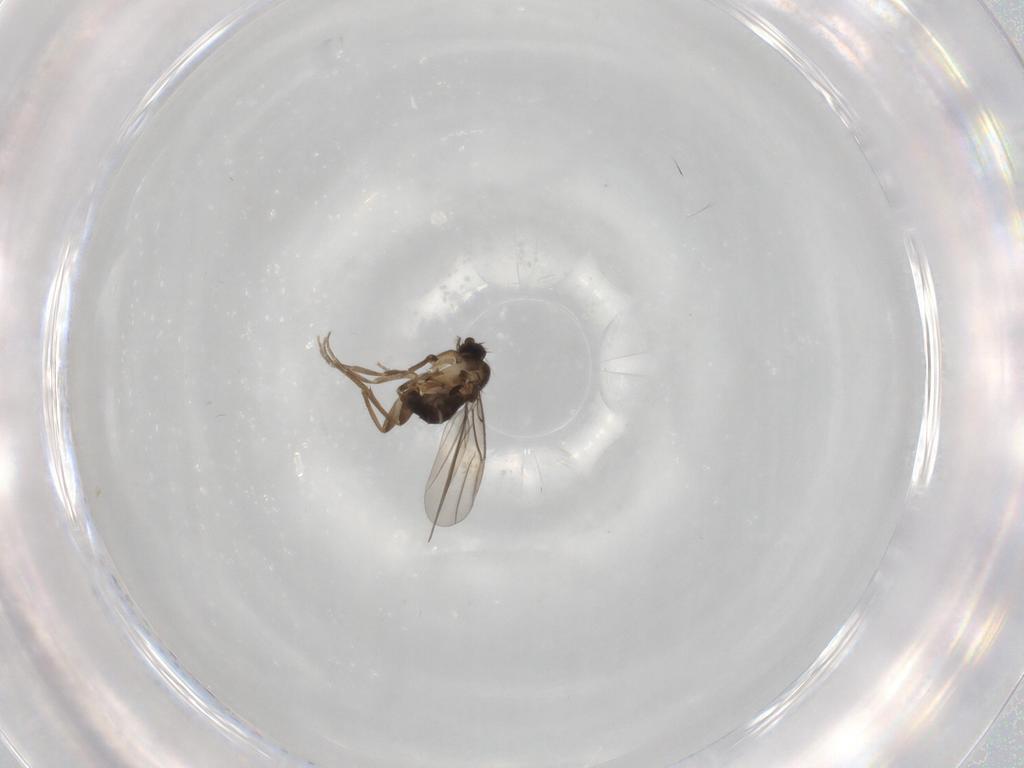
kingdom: Animalia
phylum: Arthropoda
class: Insecta
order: Diptera
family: Phoridae
